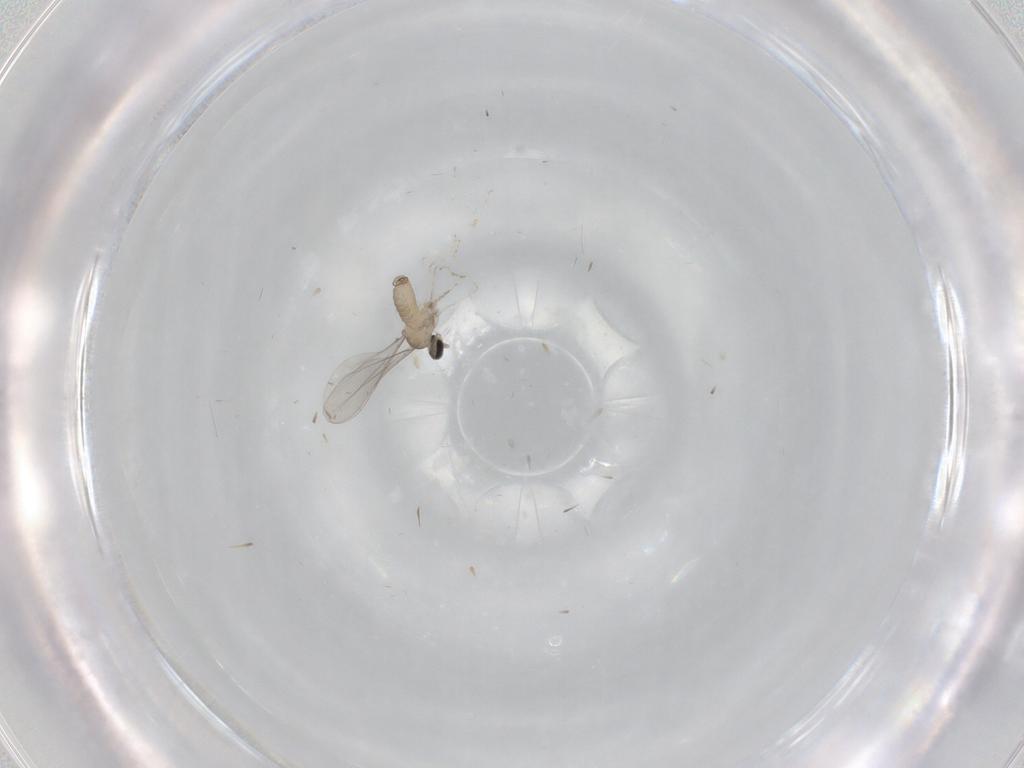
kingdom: Animalia
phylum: Arthropoda
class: Insecta
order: Diptera
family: Cecidomyiidae
